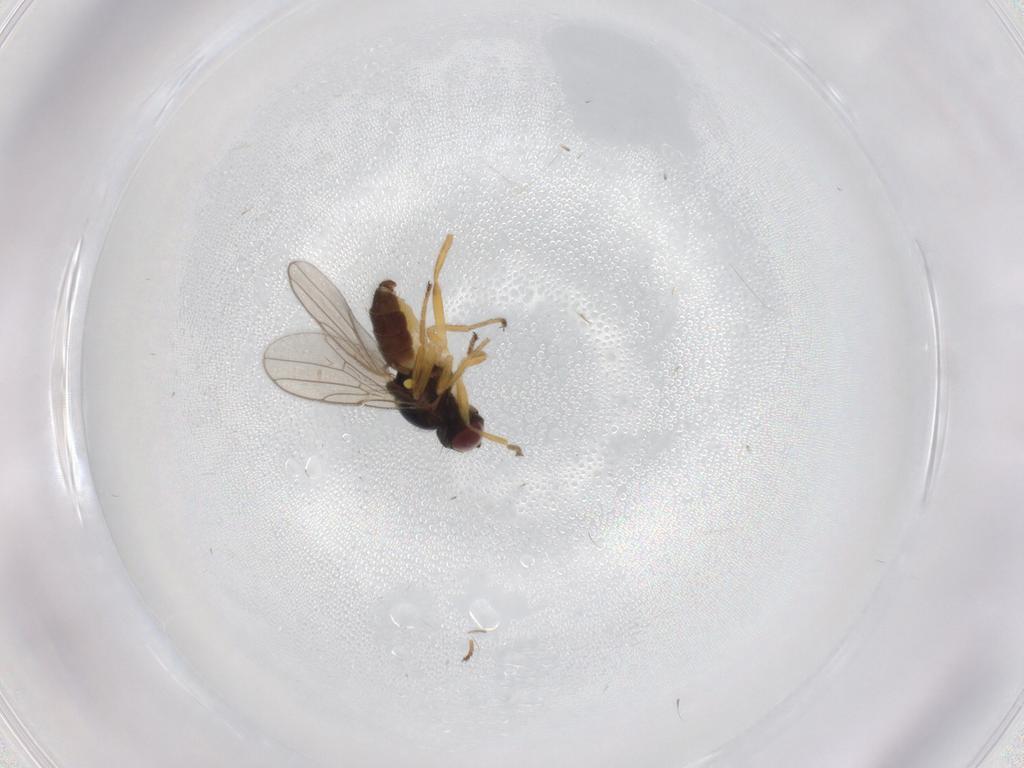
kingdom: Animalia
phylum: Arthropoda
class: Insecta
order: Diptera
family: Chloropidae
